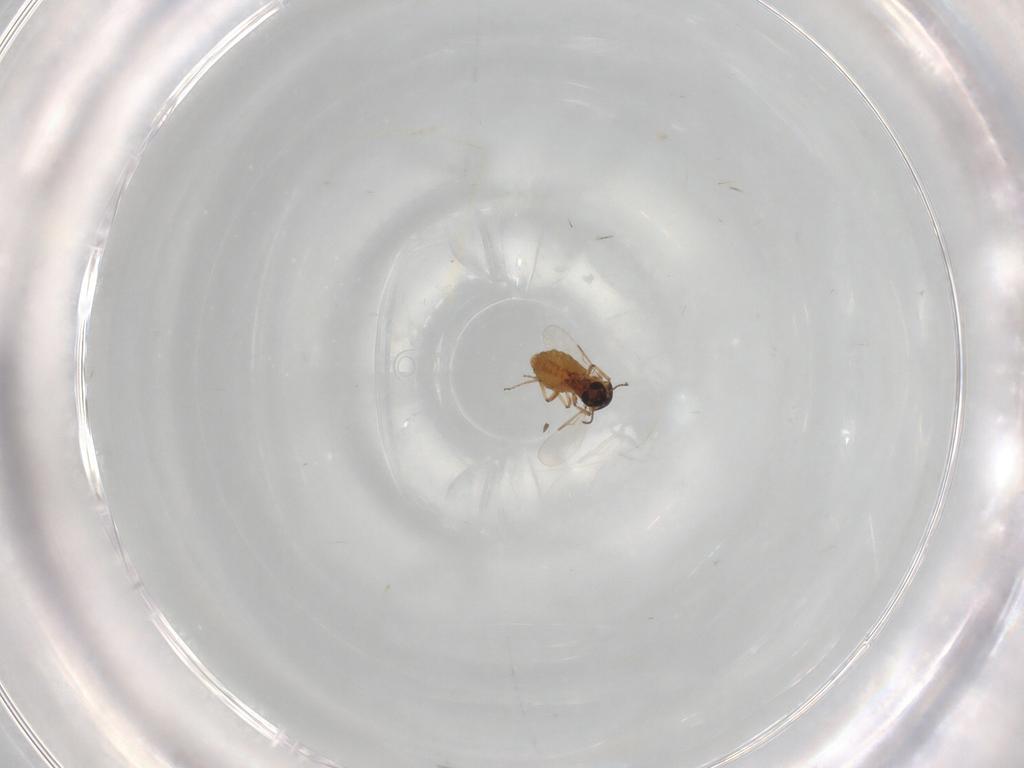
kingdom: Animalia
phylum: Arthropoda
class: Insecta
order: Diptera
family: Ceratopogonidae
